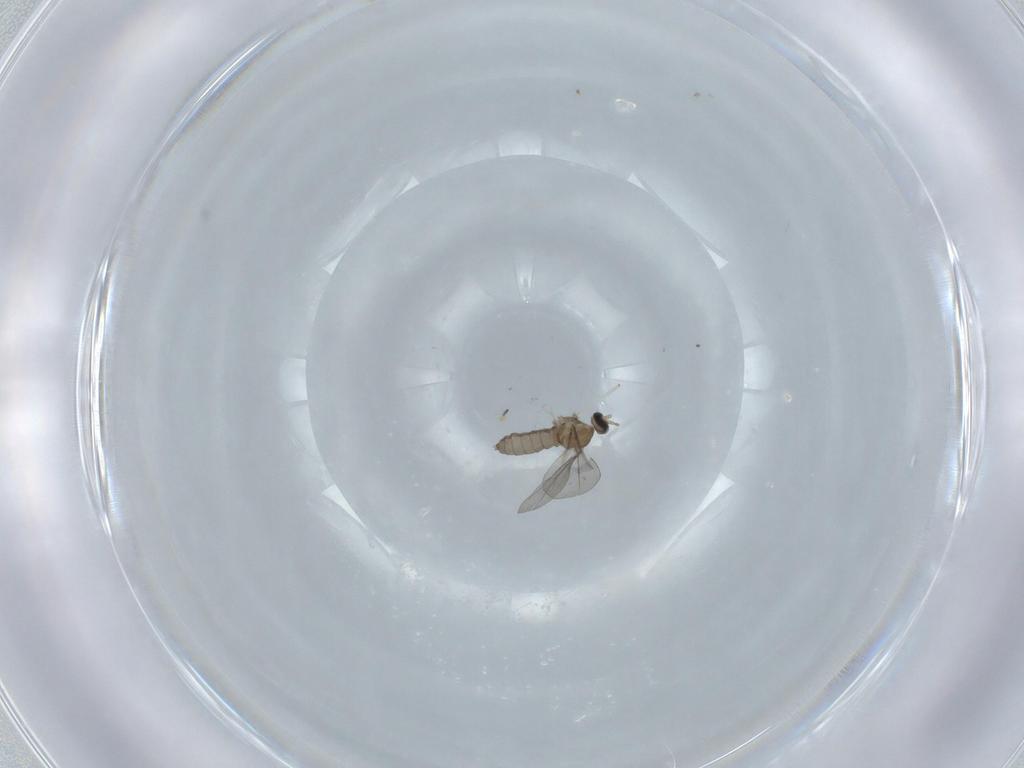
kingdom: Animalia
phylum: Arthropoda
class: Insecta
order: Diptera
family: Cecidomyiidae
